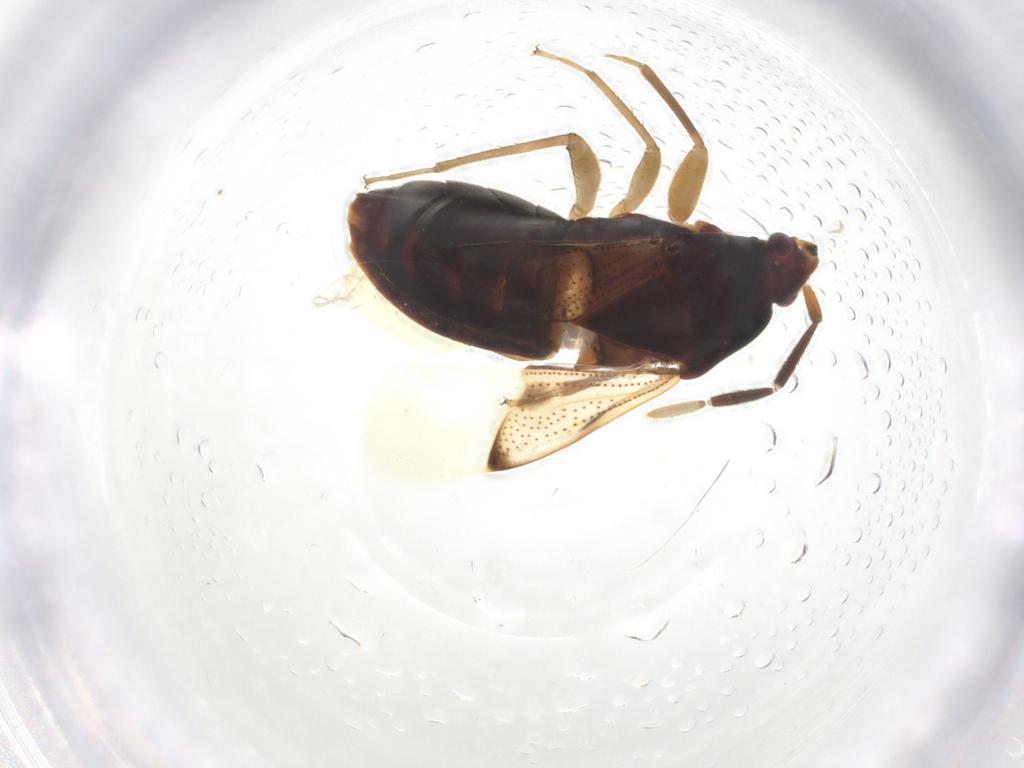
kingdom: Animalia
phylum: Arthropoda
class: Insecta
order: Hemiptera
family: Rhyparochromidae
